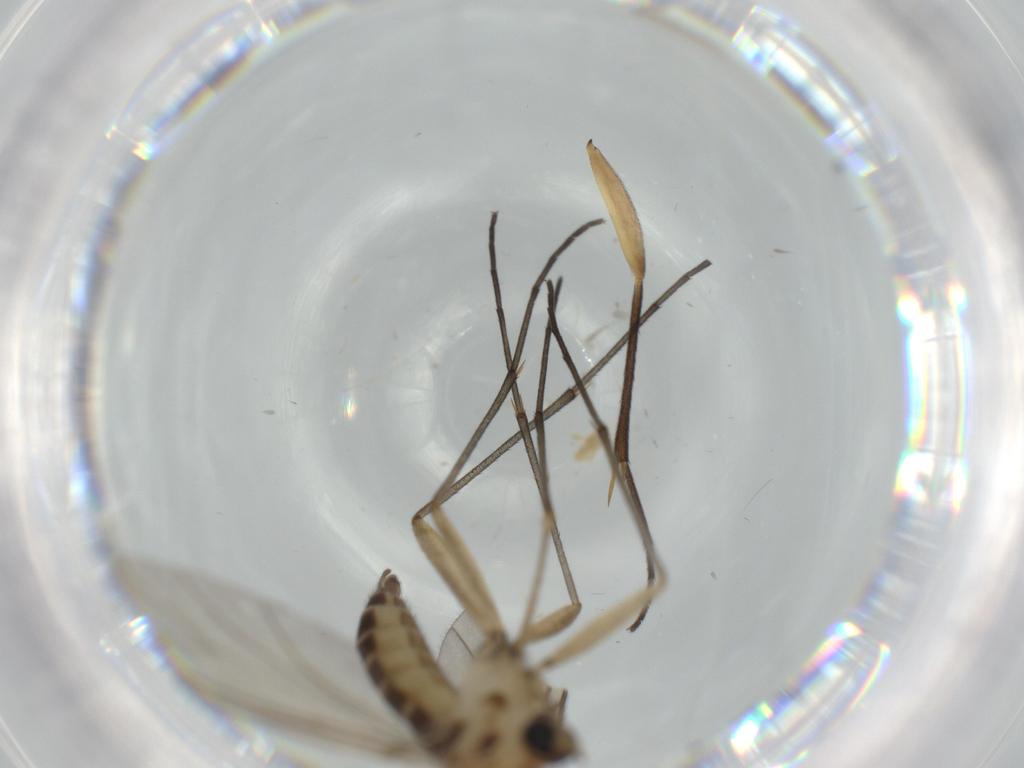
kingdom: Animalia
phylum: Arthropoda
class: Insecta
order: Diptera
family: Sciaridae
